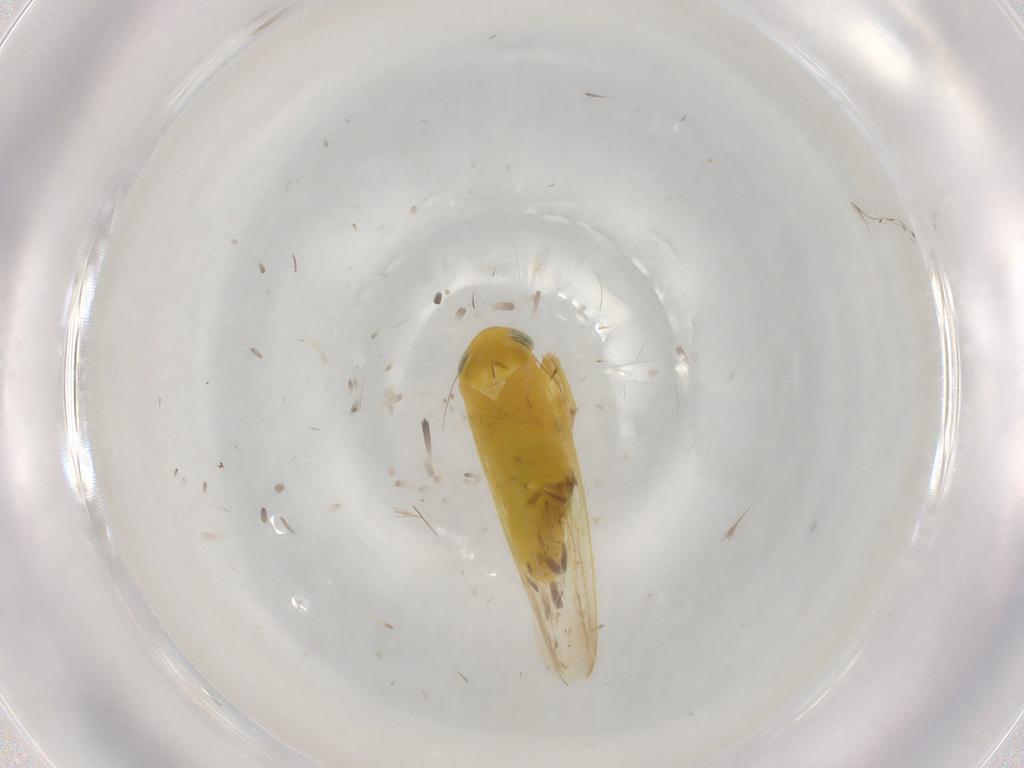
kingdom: Animalia
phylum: Arthropoda
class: Insecta
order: Hemiptera
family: Cicadellidae
